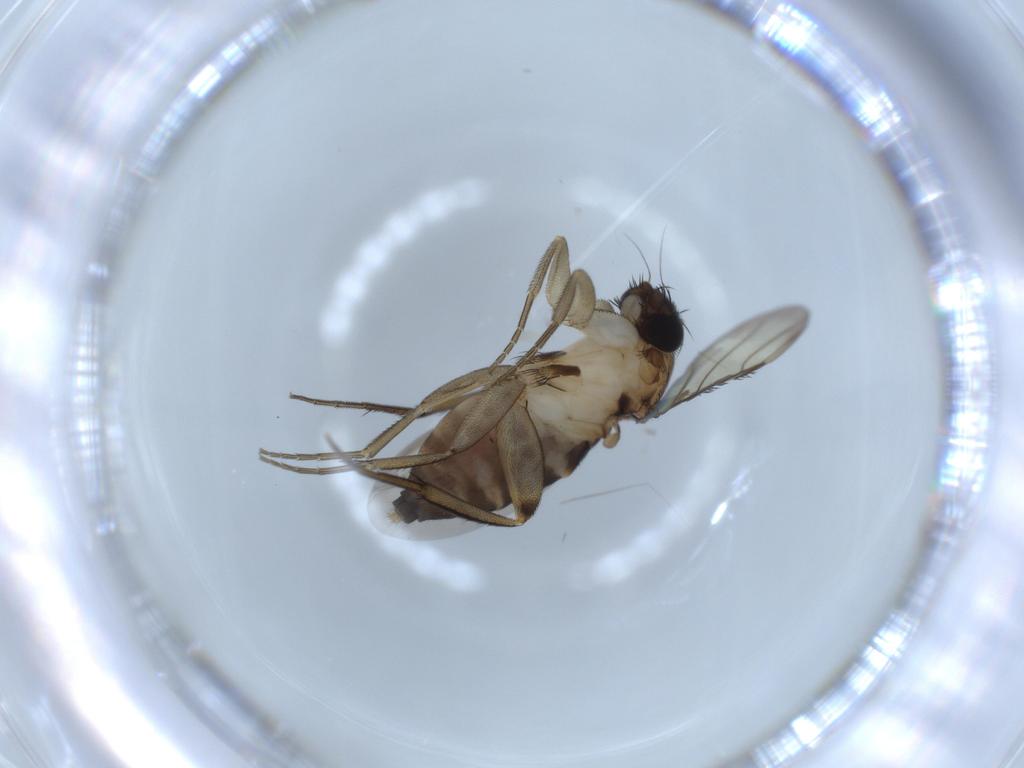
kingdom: Animalia
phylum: Arthropoda
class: Insecta
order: Diptera
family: Phoridae
